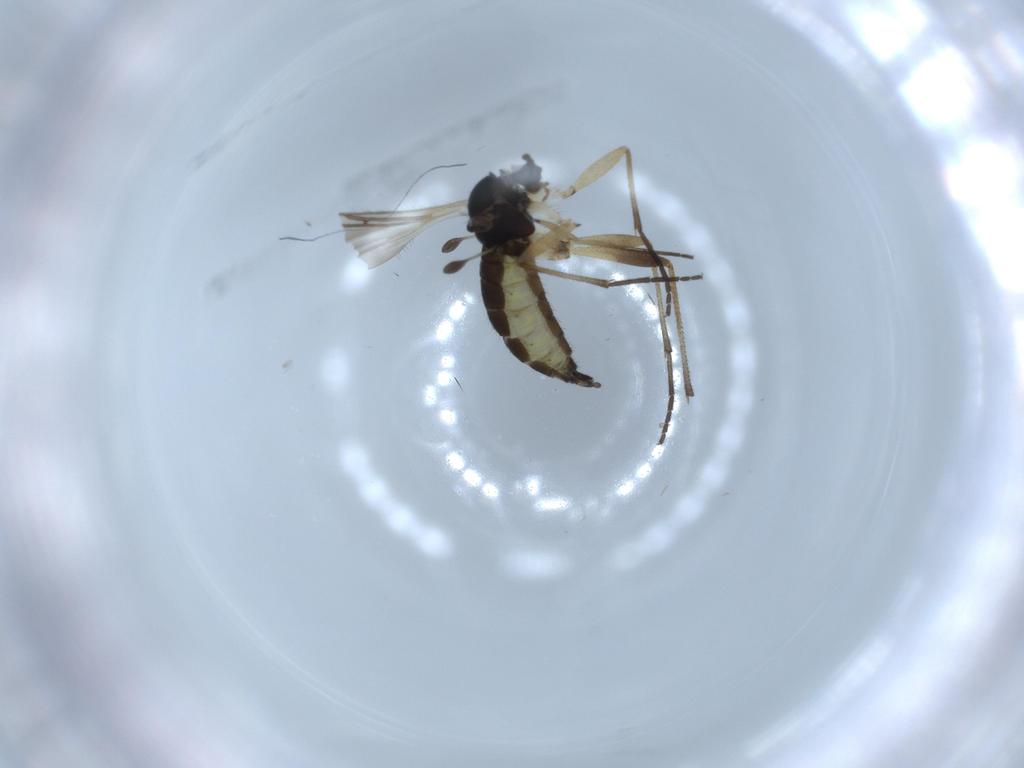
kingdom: Animalia
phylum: Arthropoda
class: Insecta
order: Diptera
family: Sciaridae
